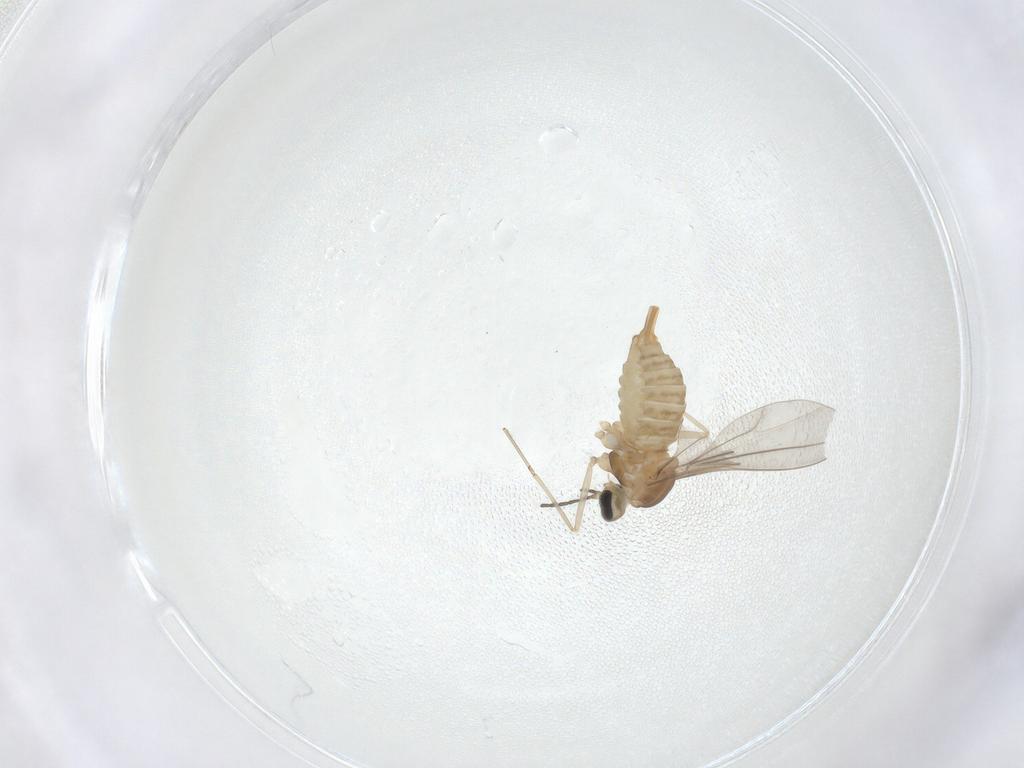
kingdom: Animalia
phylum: Arthropoda
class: Insecta
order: Diptera
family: Cecidomyiidae
